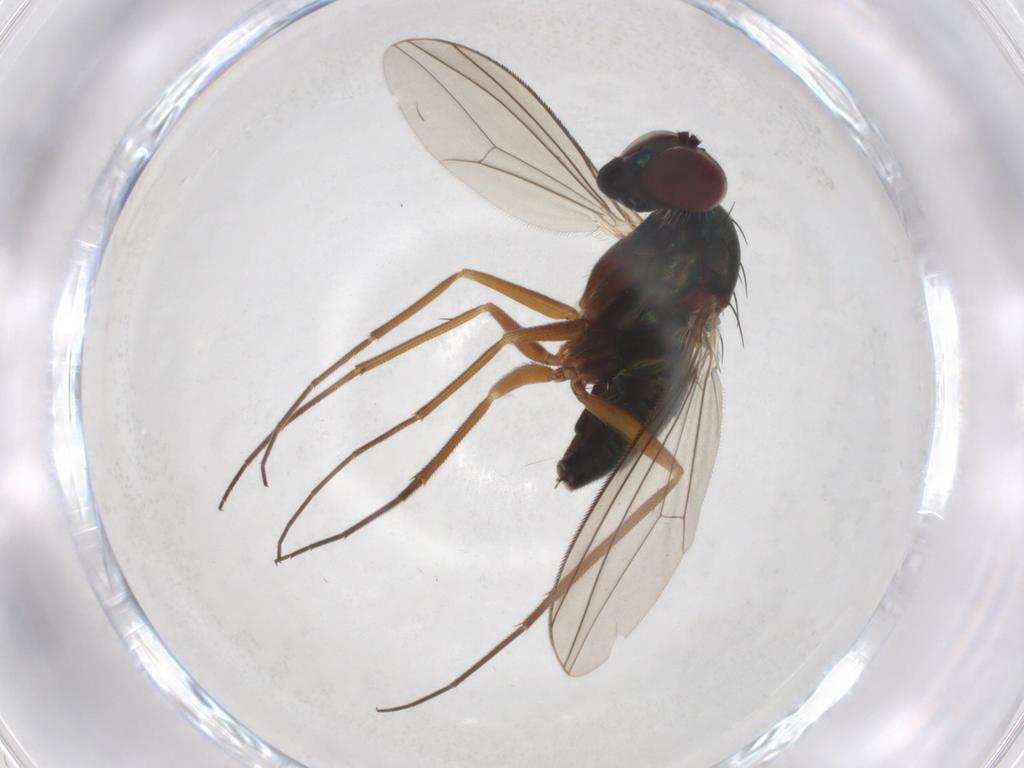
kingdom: Animalia
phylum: Arthropoda
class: Insecta
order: Diptera
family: Dolichopodidae
